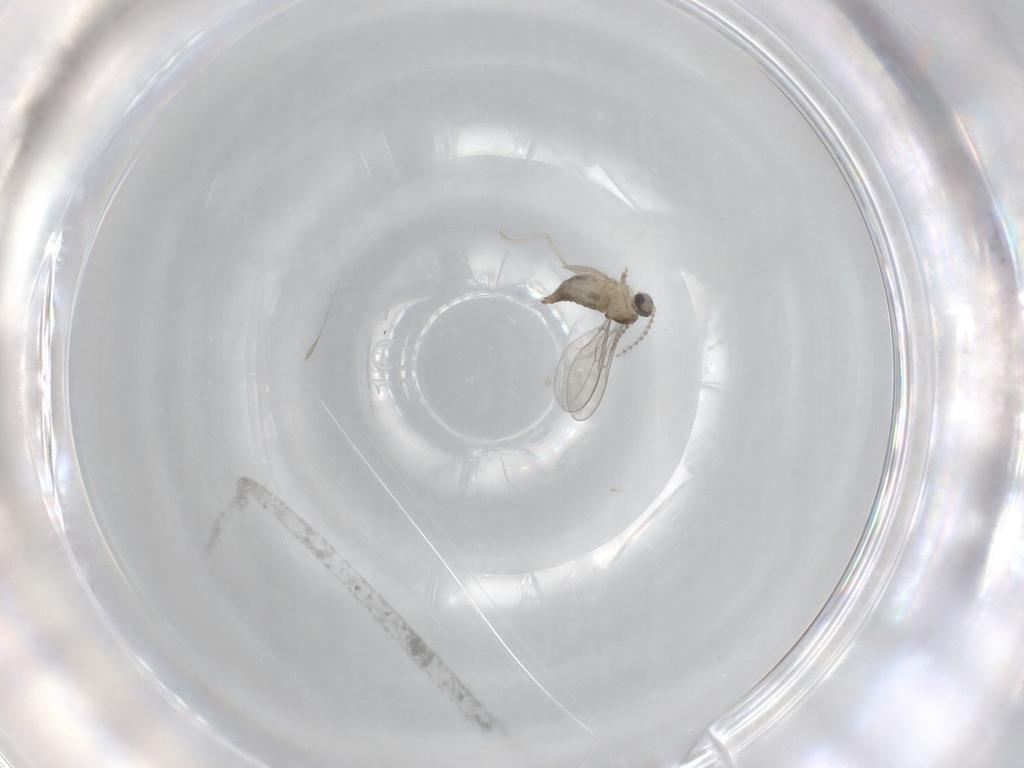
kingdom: Animalia
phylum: Arthropoda
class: Insecta
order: Diptera
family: Cecidomyiidae
